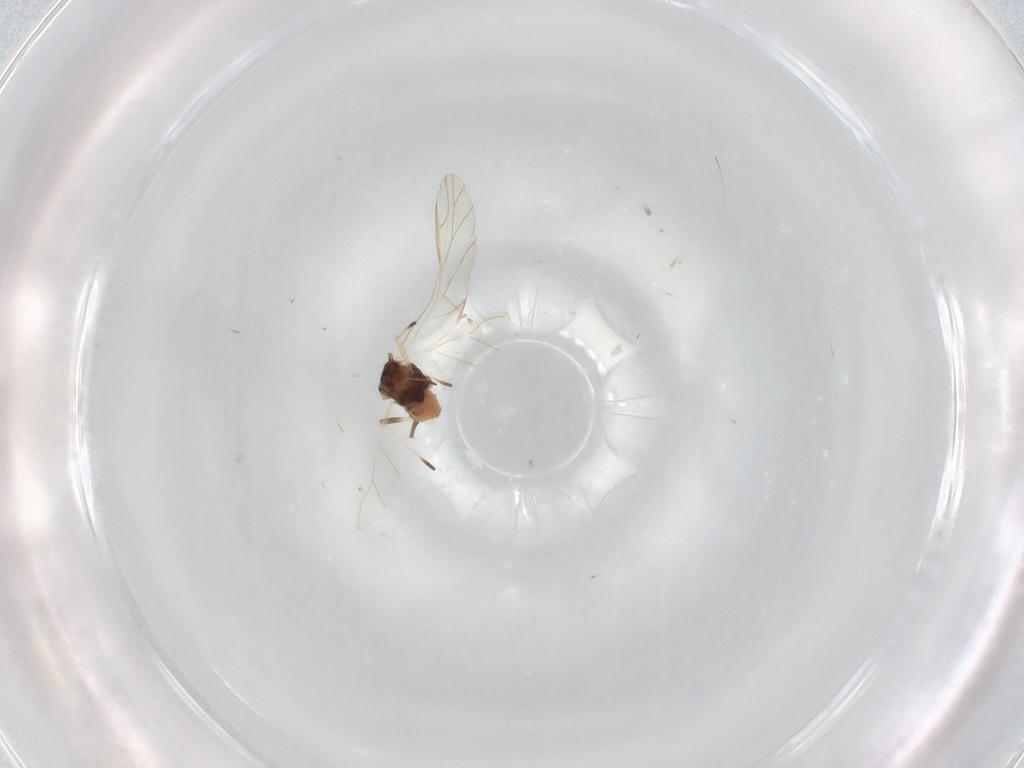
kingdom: Animalia
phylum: Arthropoda
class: Insecta
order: Hemiptera
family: Aphididae
